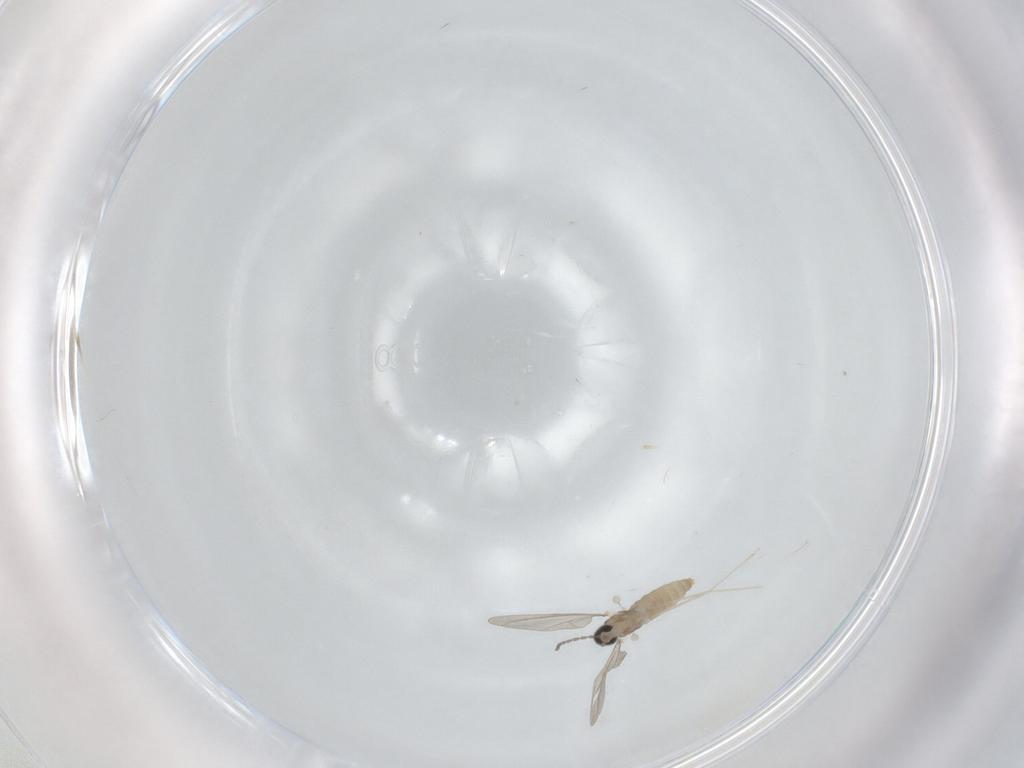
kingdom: Animalia
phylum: Arthropoda
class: Insecta
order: Diptera
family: Cecidomyiidae
